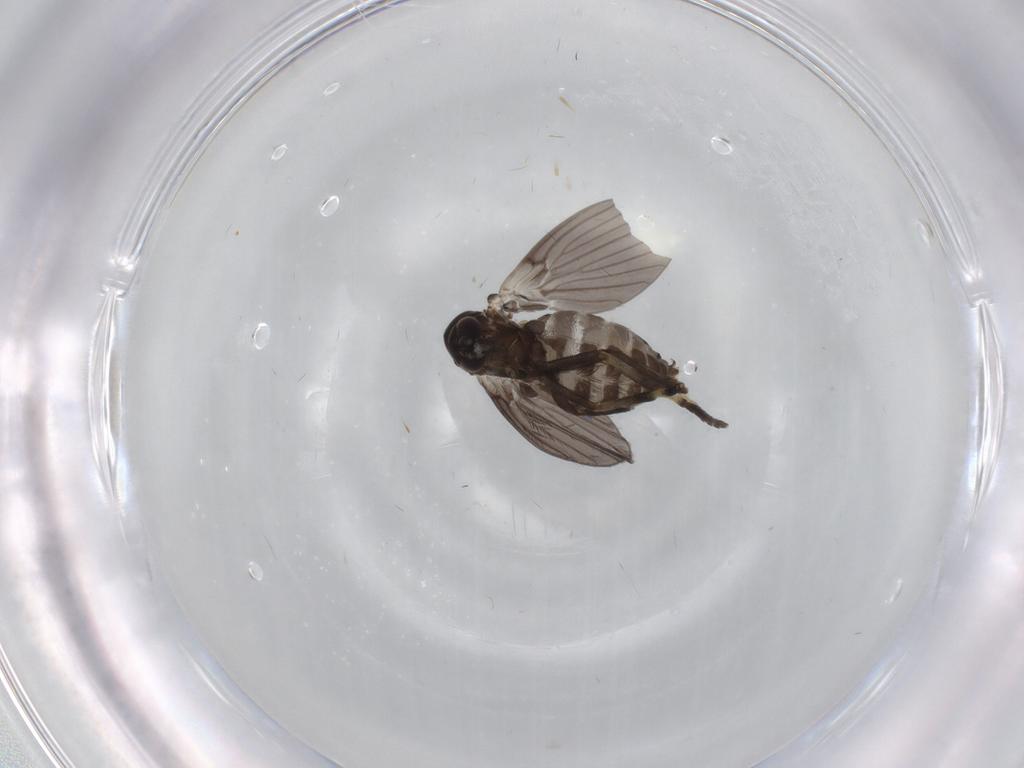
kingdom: Animalia
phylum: Arthropoda
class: Insecta
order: Diptera
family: Psychodidae
